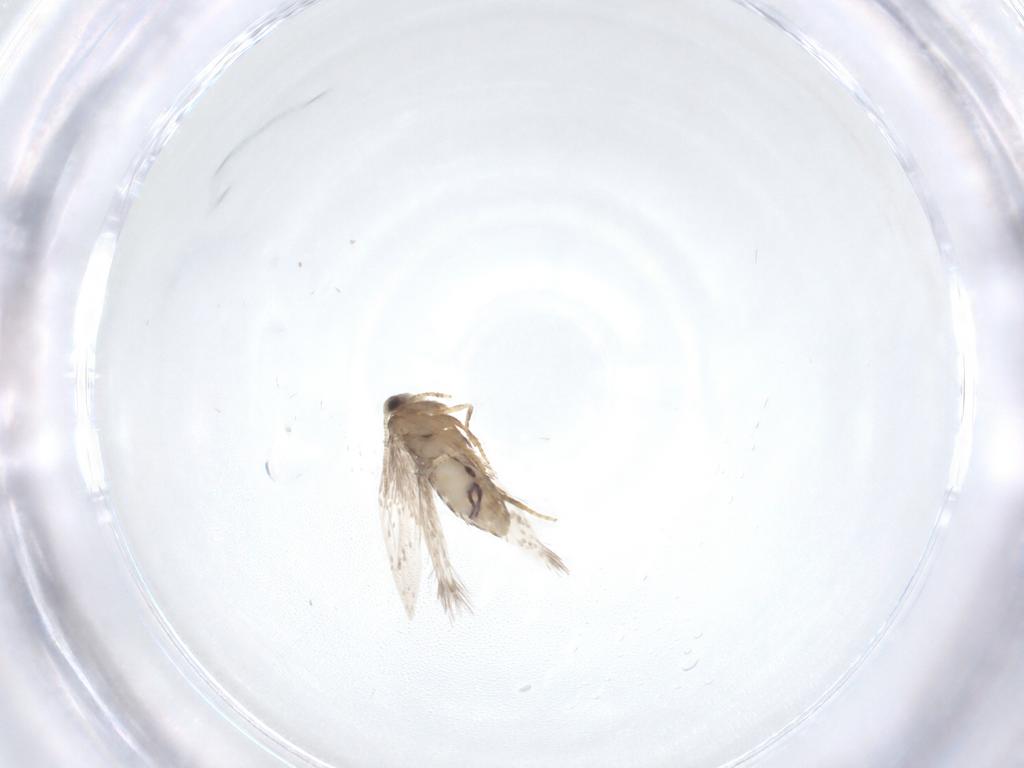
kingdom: Animalia
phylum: Arthropoda
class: Insecta
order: Lepidoptera
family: Nepticulidae
